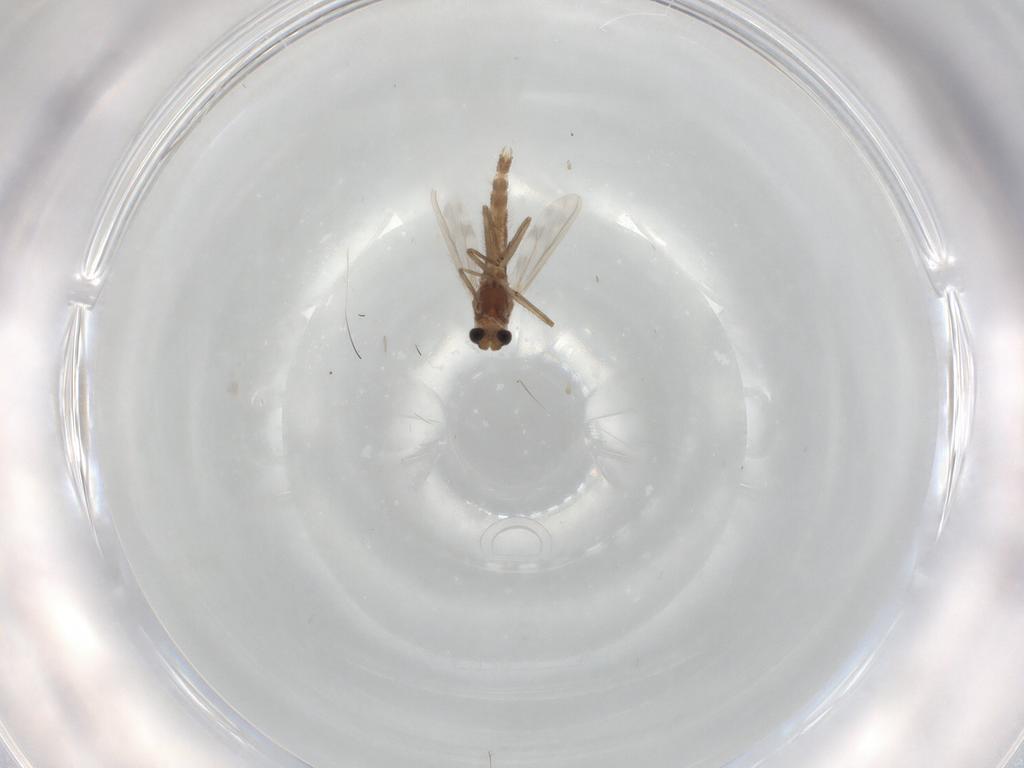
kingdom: Animalia
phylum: Arthropoda
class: Insecta
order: Diptera
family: Chironomidae
